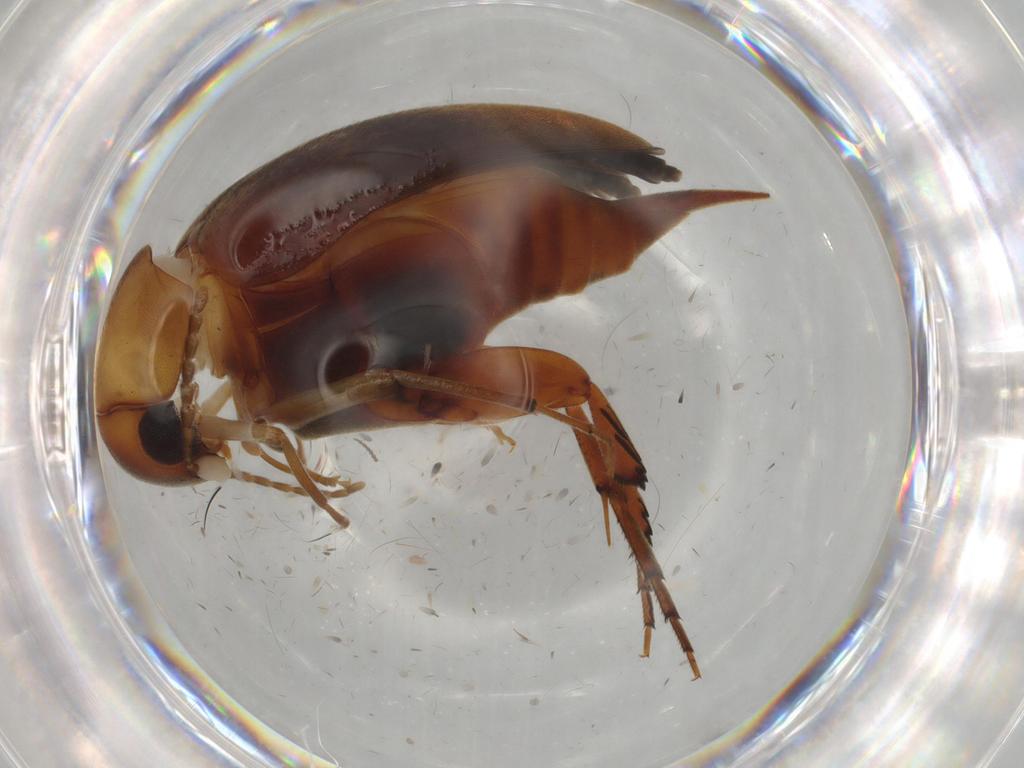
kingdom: Animalia
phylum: Arthropoda
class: Insecta
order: Coleoptera
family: Mordellidae
